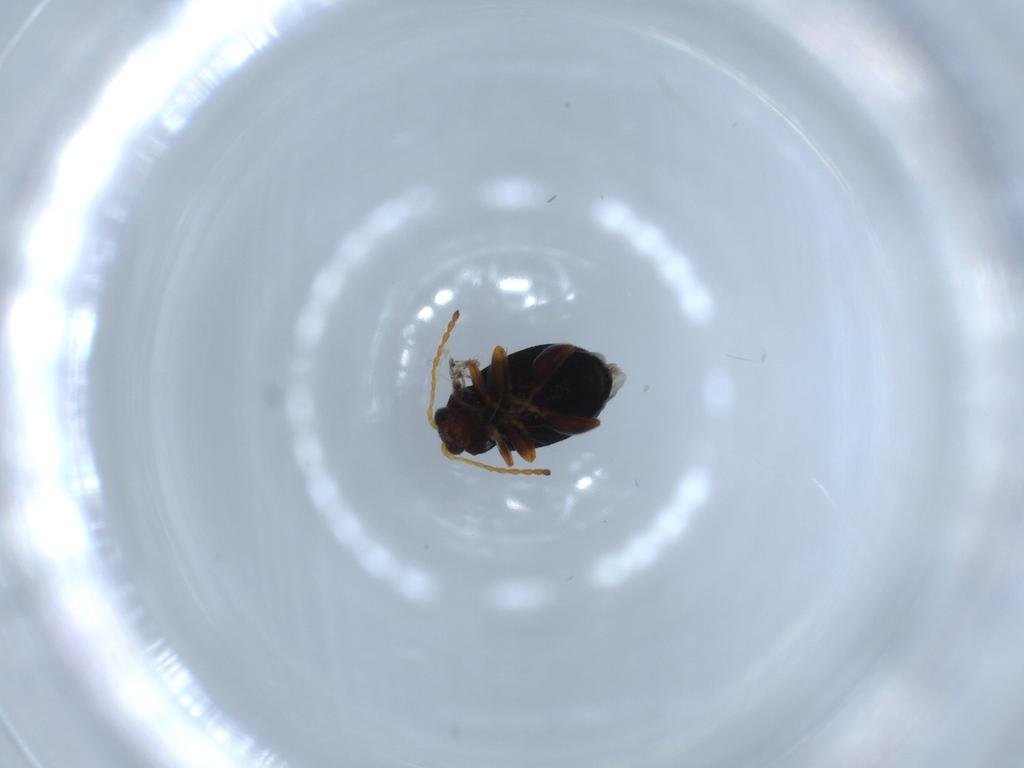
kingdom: Animalia
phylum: Arthropoda
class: Insecta
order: Coleoptera
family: Chrysomelidae
